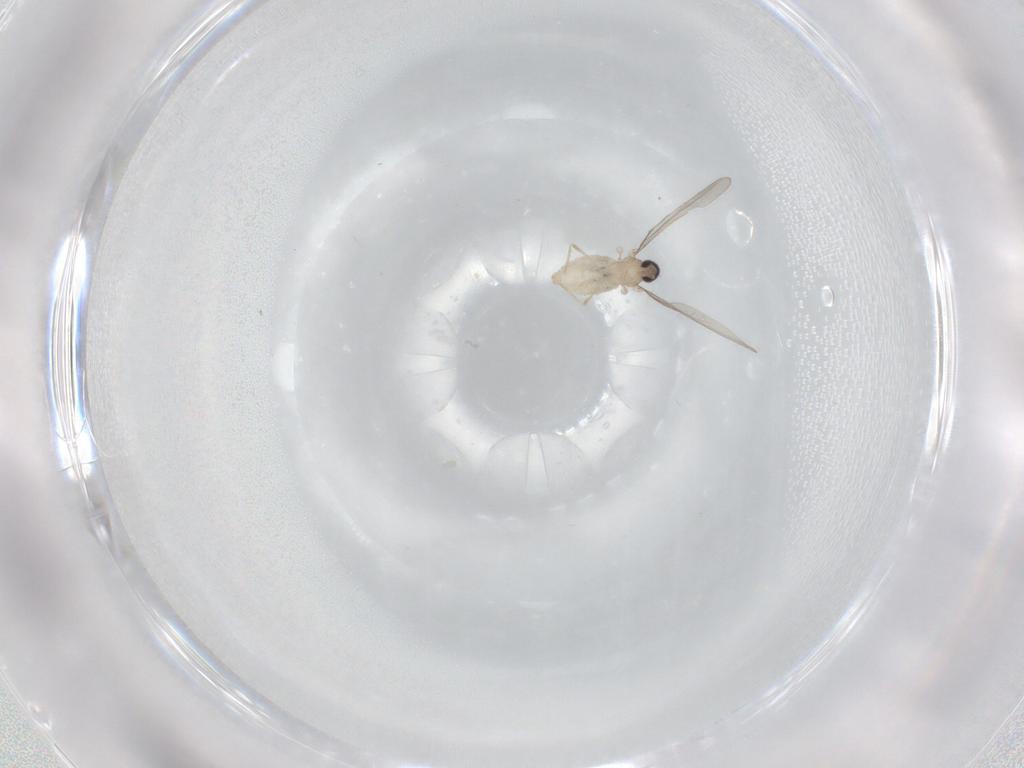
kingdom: Animalia
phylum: Arthropoda
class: Insecta
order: Diptera
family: Cecidomyiidae
